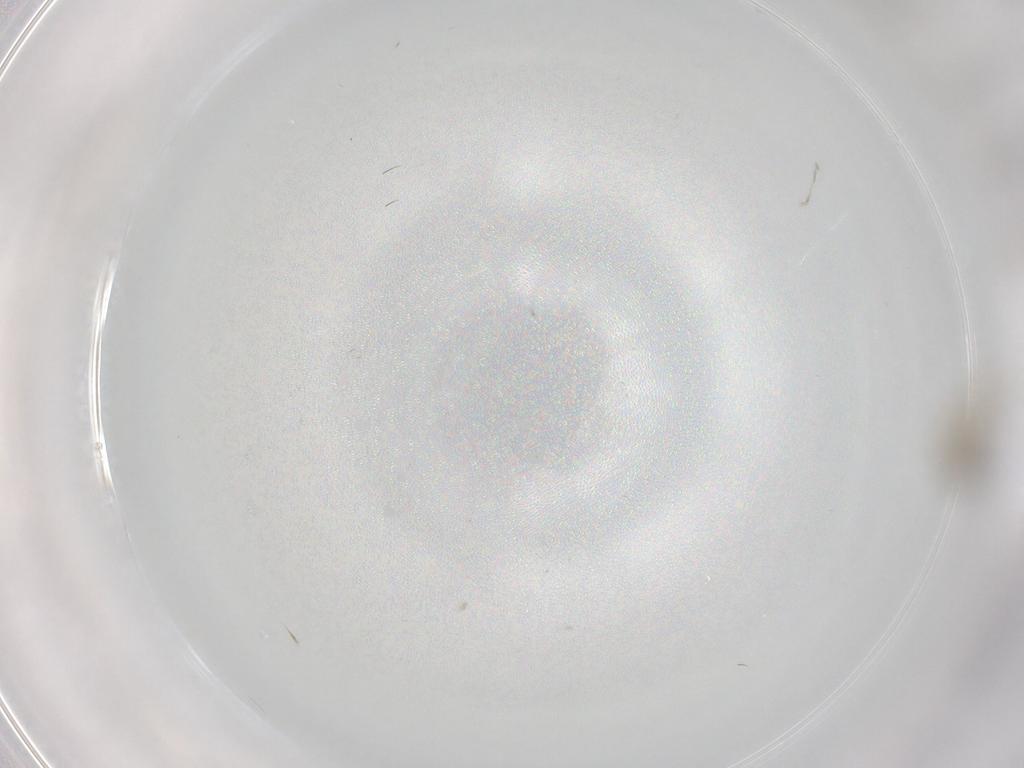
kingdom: Animalia
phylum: Arthropoda
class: Insecta
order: Diptera
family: Cecidomyiidae
